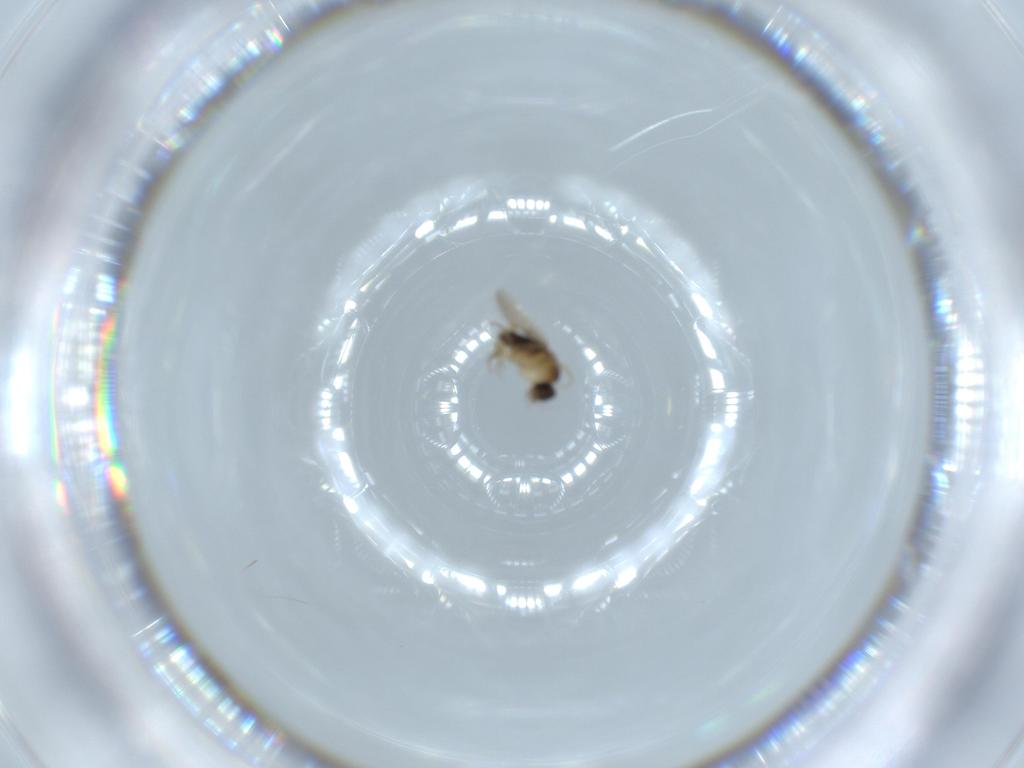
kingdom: Animalia
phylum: Arthropoda
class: Insecta
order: Diptera
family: Phoridae
